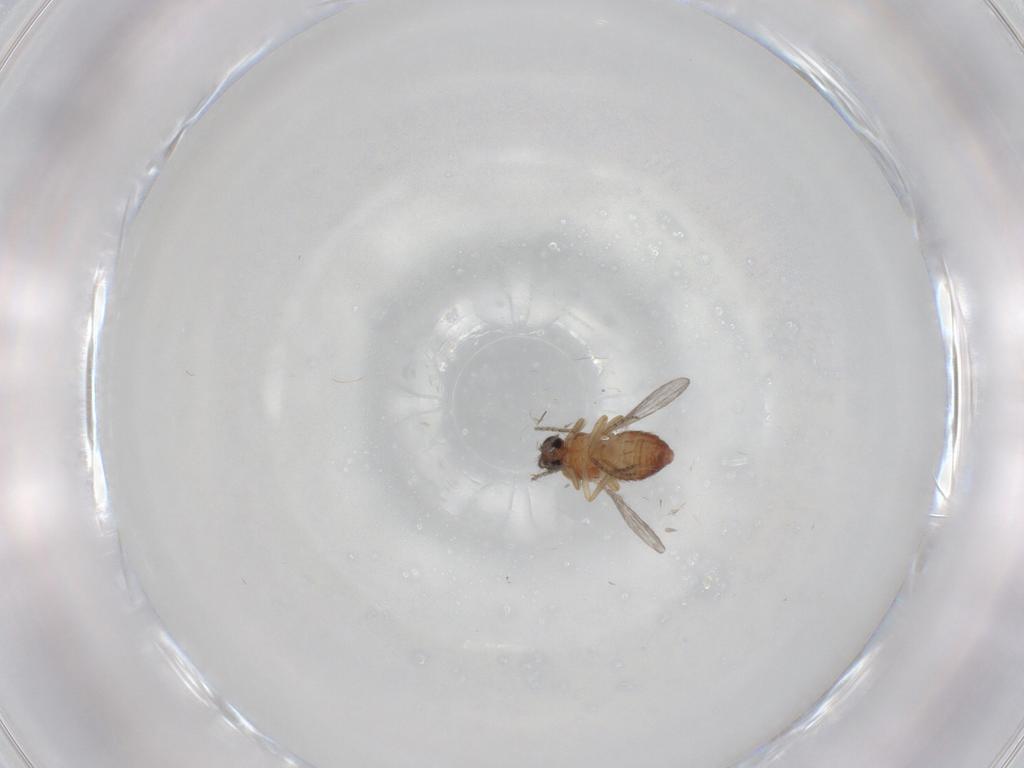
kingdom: Animalia
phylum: Arthropoda
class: Insecta
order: Diptera
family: Ceratopogonidae
